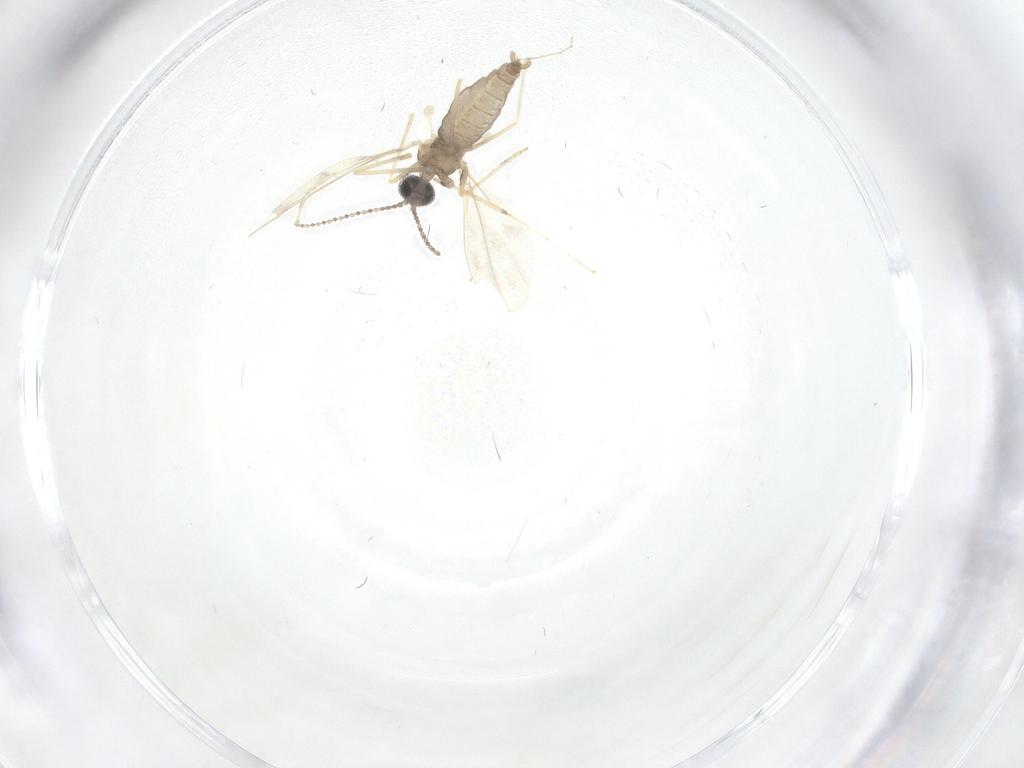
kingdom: Animalia
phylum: Arthropoda
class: Insecta
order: Diptera
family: Cecidomyiidae
